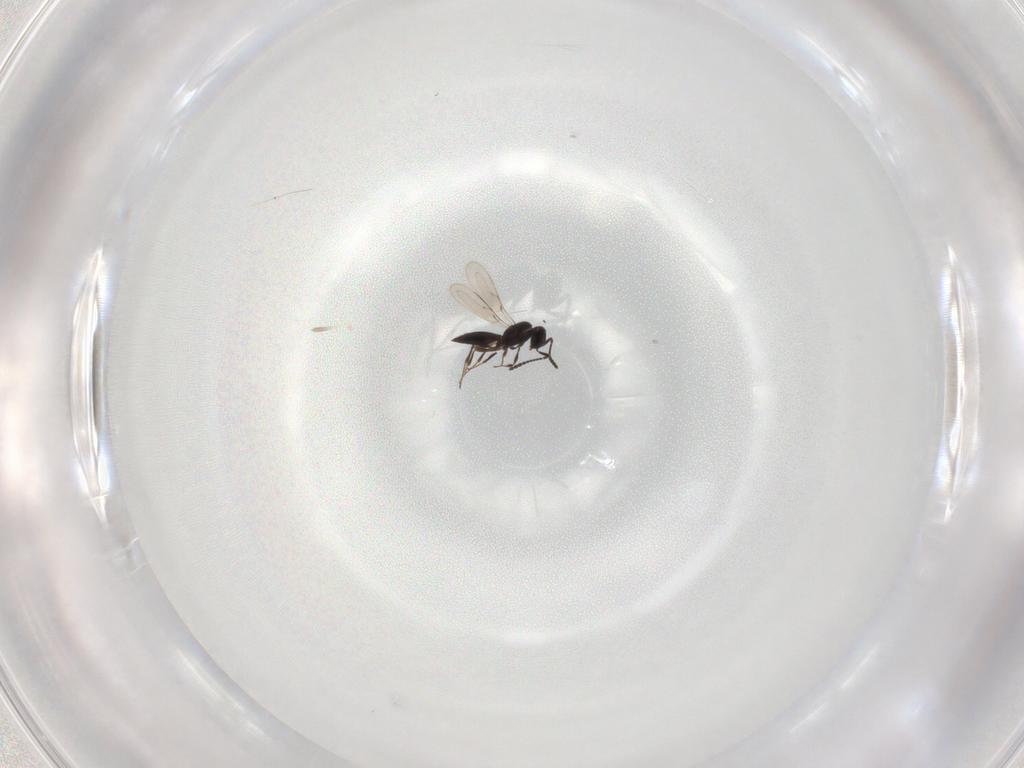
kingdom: Animalia
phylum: Arthropoda
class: Insecta
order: Hymenoptera
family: Scelionidae
